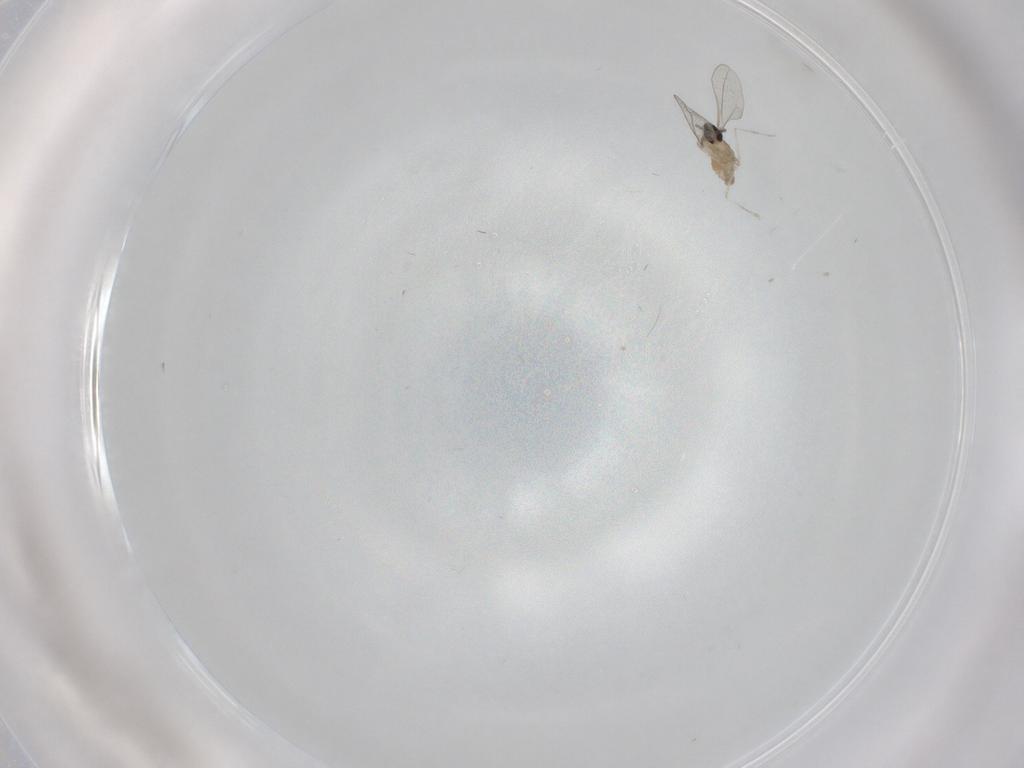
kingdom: Animalia
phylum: Arthropoda
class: Insecta
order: Diptera
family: Cecidomyiidae
